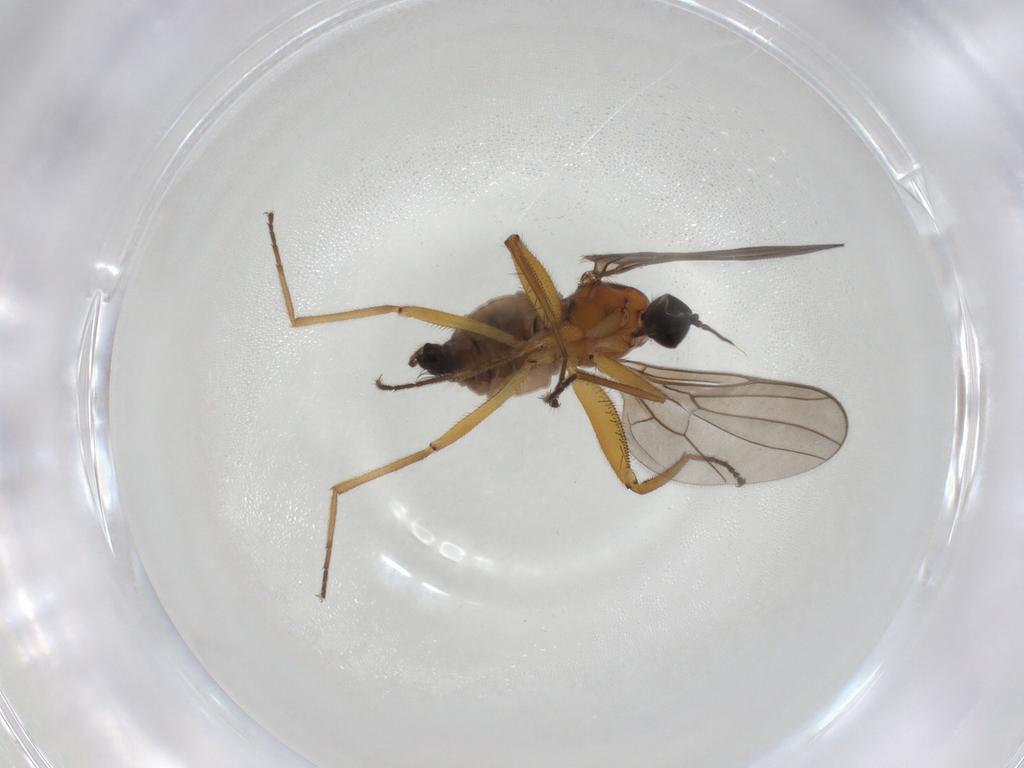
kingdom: Animalia
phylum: Arthropoda
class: Insecta
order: Diptera
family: Hybotidae
